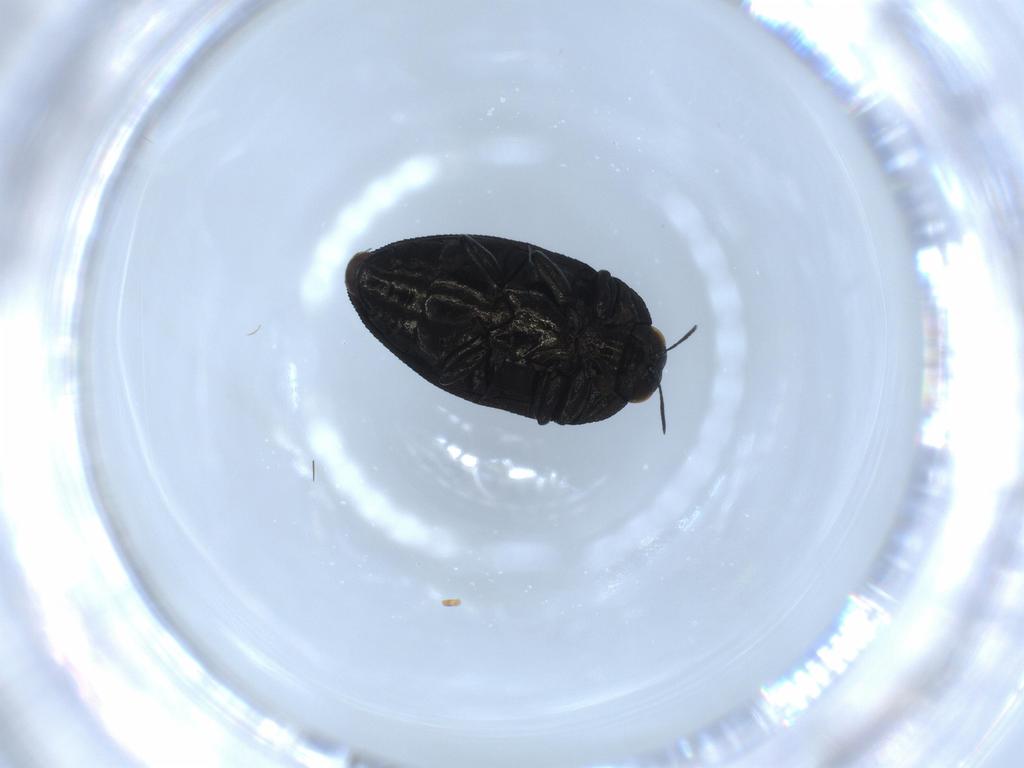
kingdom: Animalia
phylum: Arthropoda
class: Insecta
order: Coleoptera
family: Buprestidae
